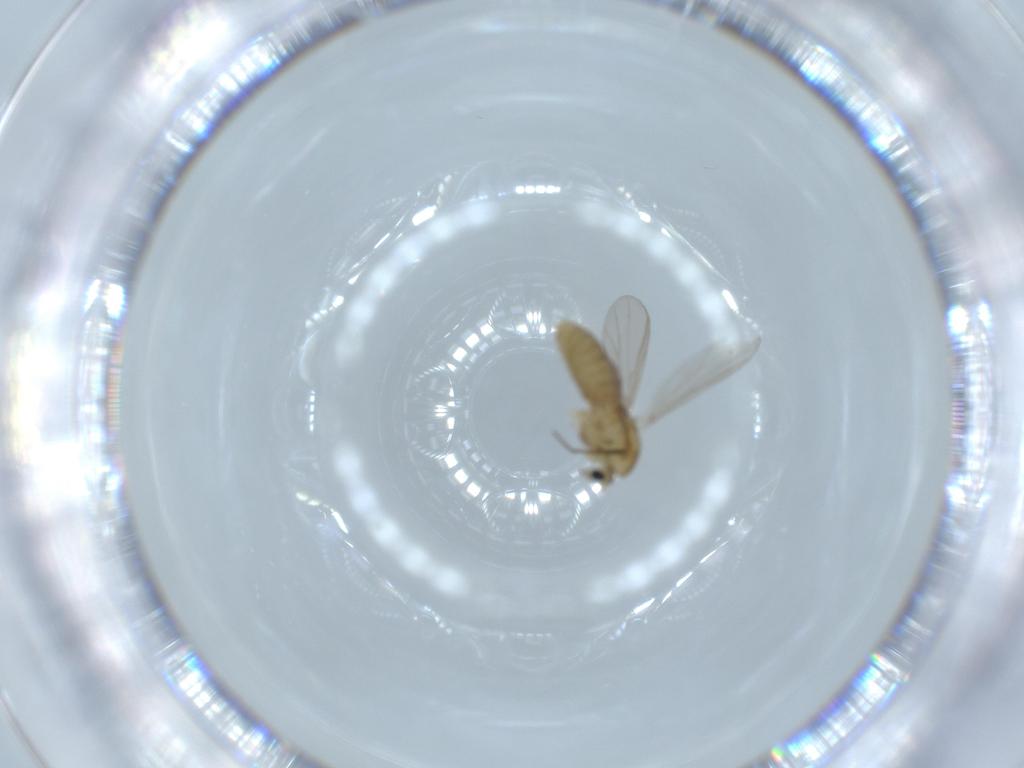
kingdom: Animalia
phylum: Arthropoda
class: Insecta
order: Diptera
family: Chironomidae
